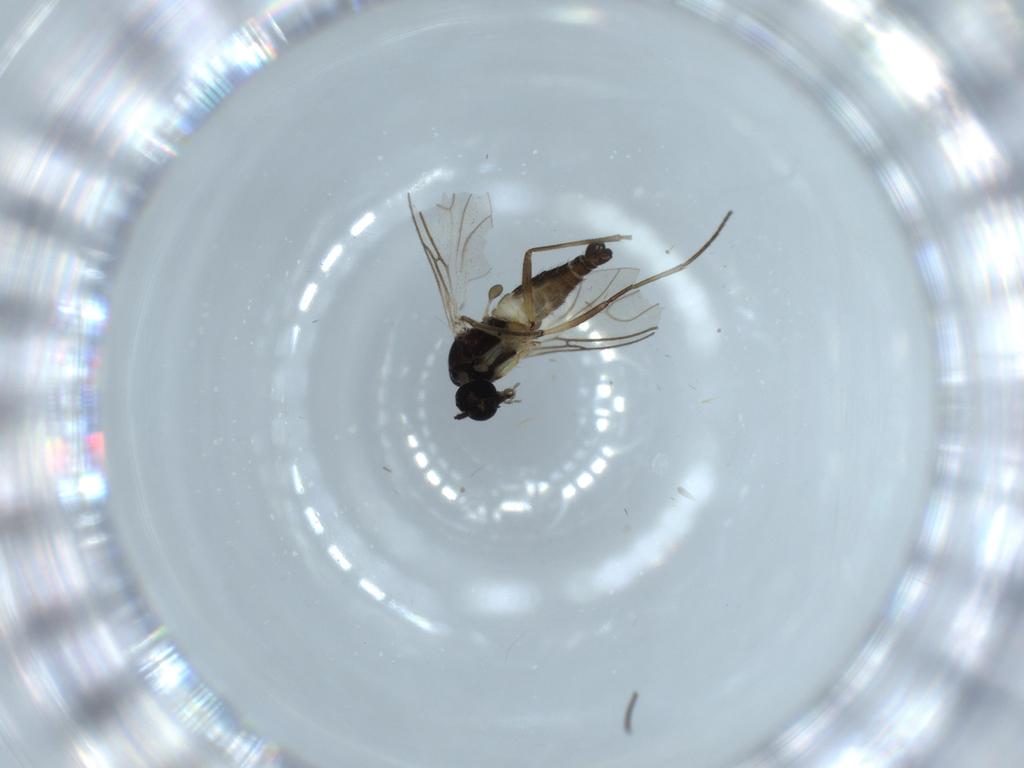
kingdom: Animalia
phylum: Arthropoda
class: Insecta
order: Diptera
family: Sciaridae
